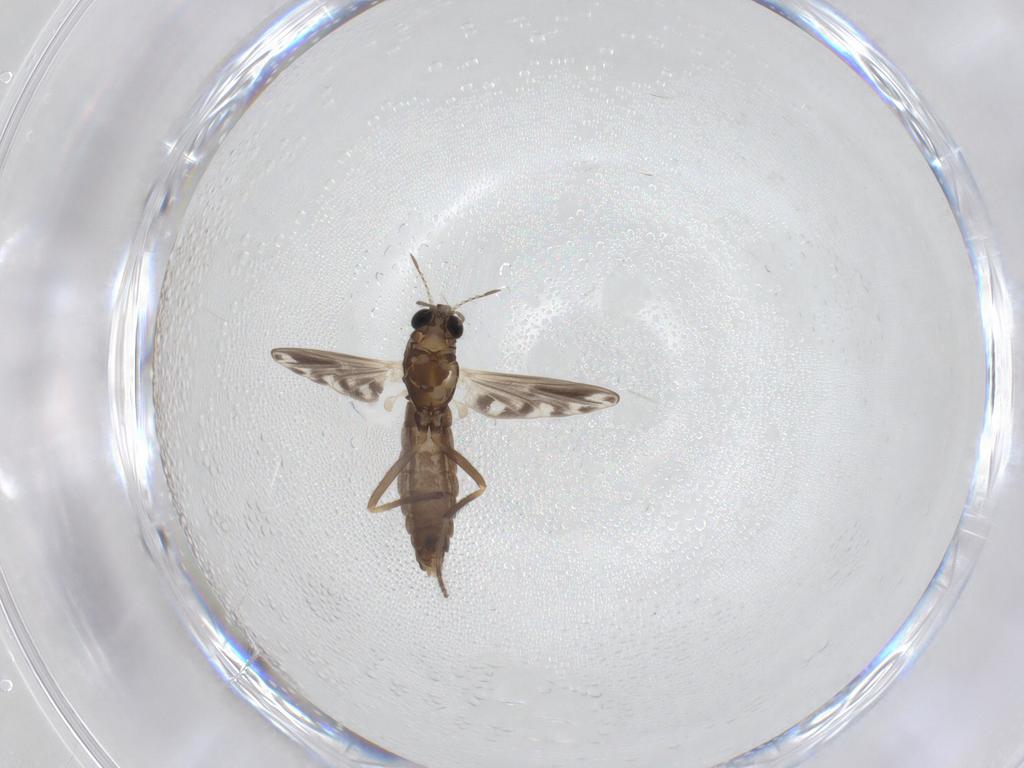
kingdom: Animalia
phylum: Arthropoda
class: Insecta
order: Diptera
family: Chironomidae
